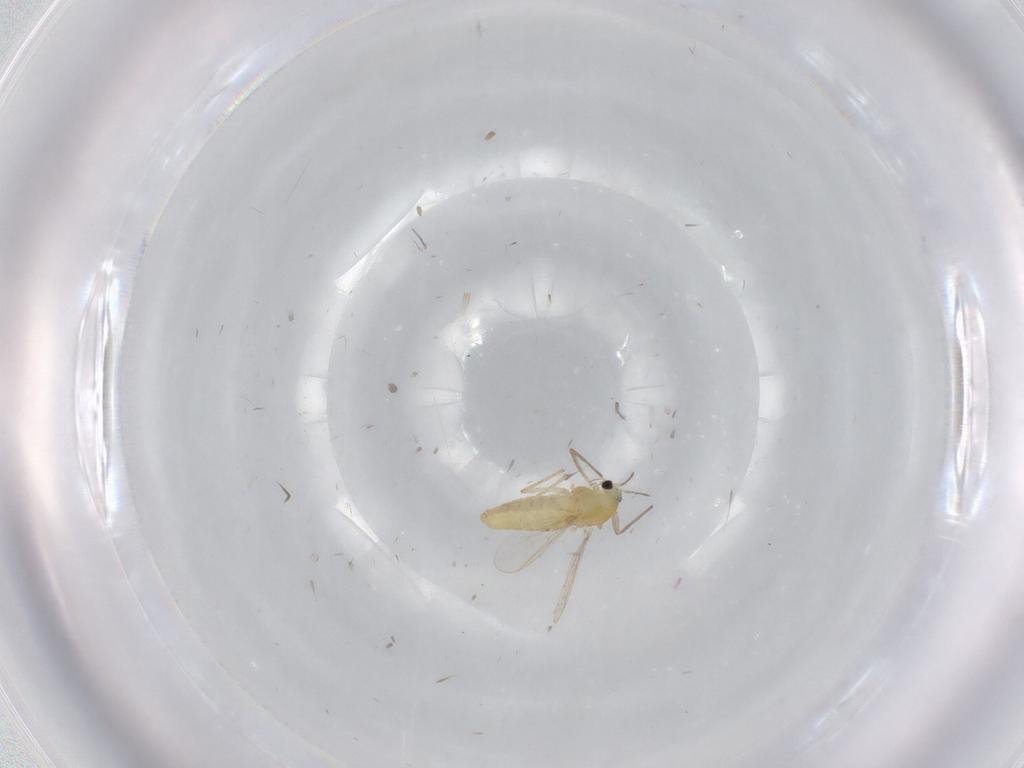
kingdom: Animalia
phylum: Arthropoda
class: Insecta
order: Diptera
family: Chironomidae
